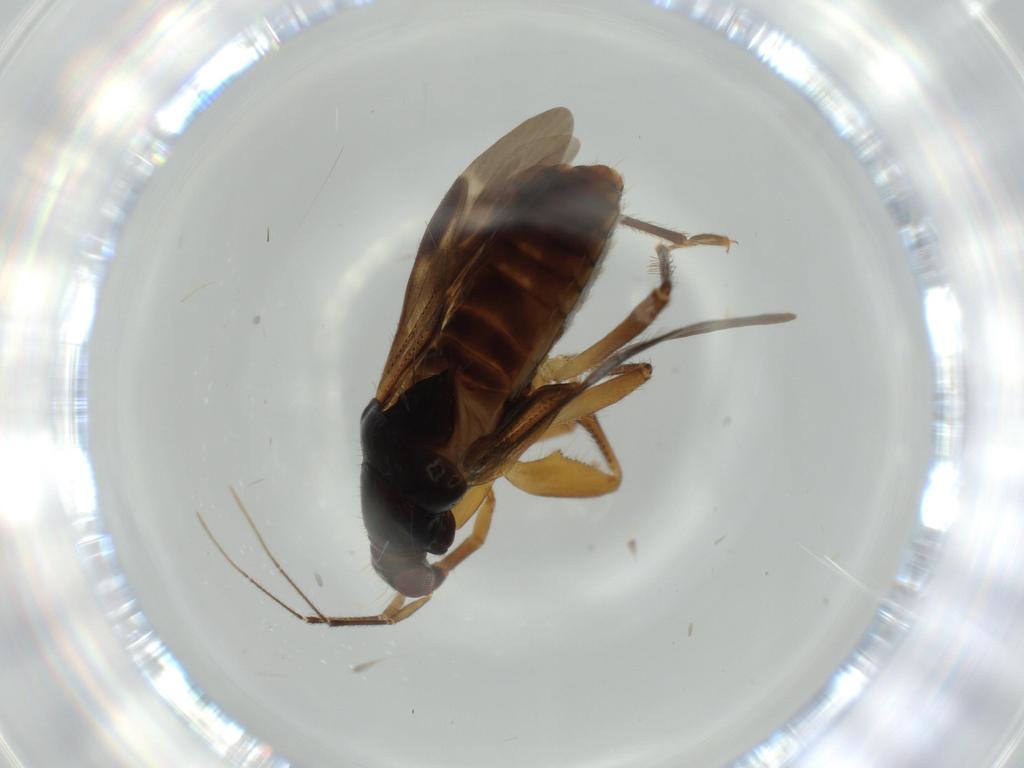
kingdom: Animalia
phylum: Arthropoda
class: Insecta
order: Hemiptera
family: Nabidae
